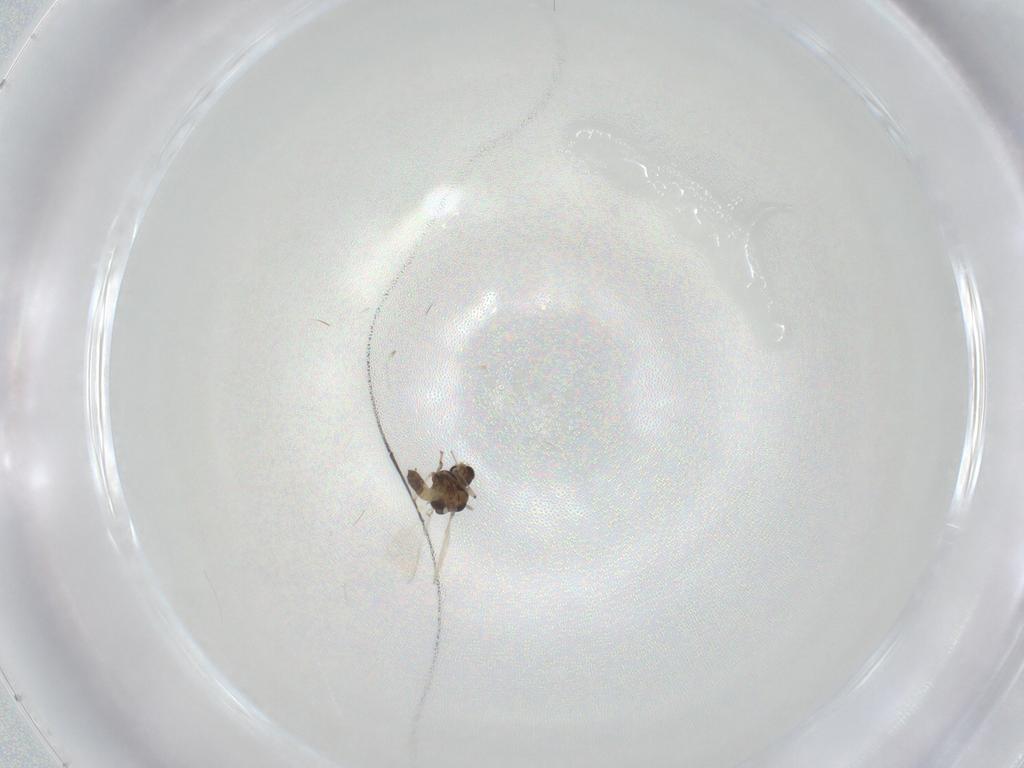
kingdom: Animalia
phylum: Arthropoda
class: Insecta
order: Diptera
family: Chironomidae
